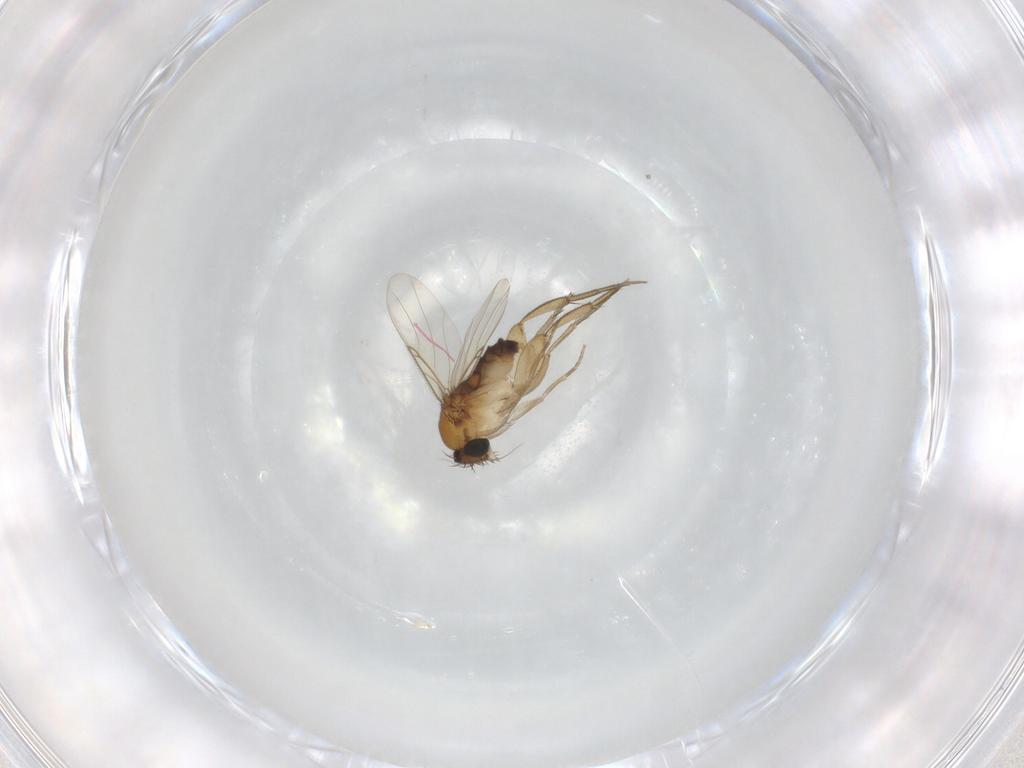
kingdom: Animalia
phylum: Arthropoda
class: Insecta
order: Diptera
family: Phoridae
